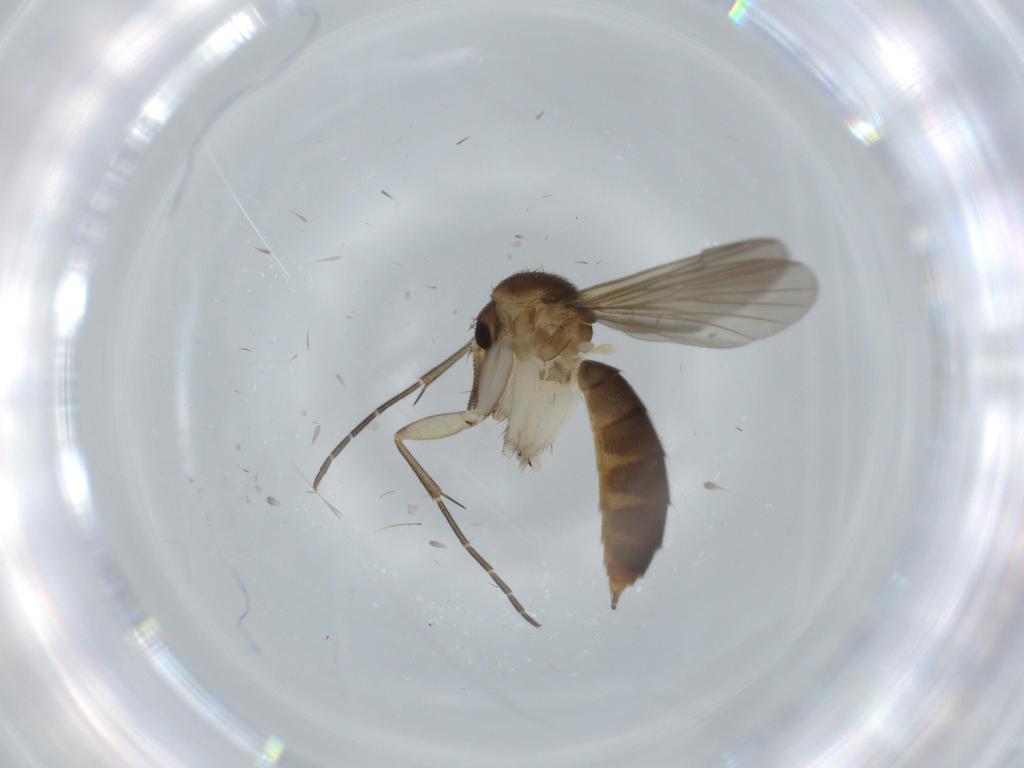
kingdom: Animalia
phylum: Arthropoda
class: Insecta
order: Diptera
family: Mycetophilidae
